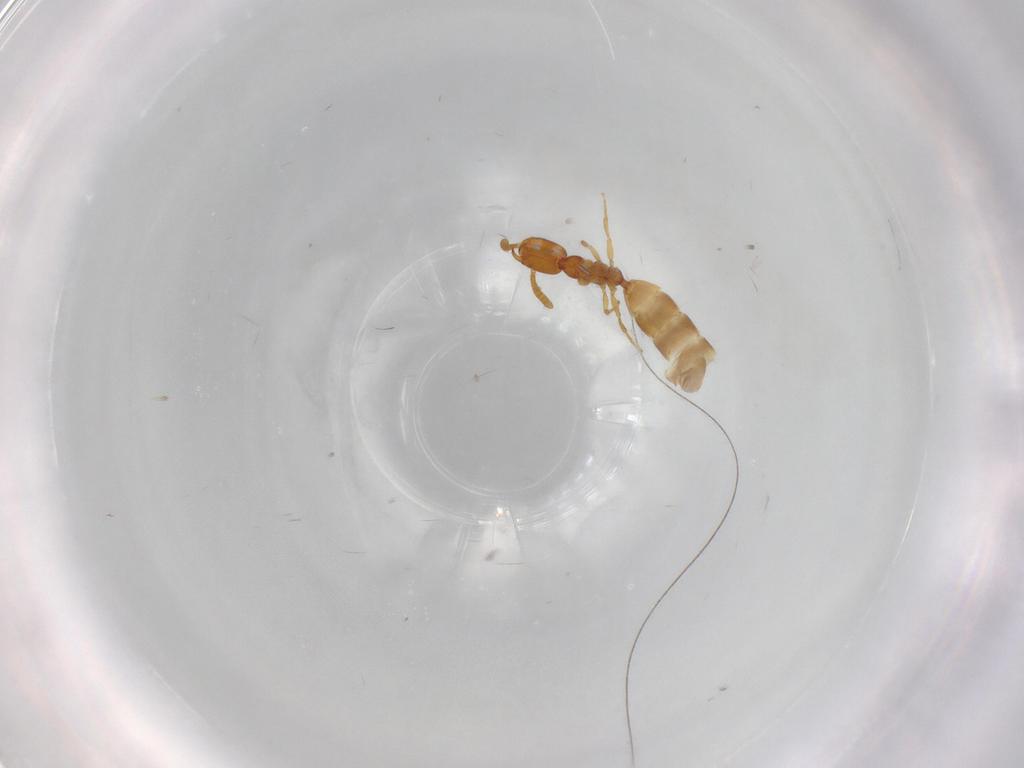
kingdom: Animalia
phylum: Arthropoda
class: Insecta
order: Hymenoptera
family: Bethylidae
